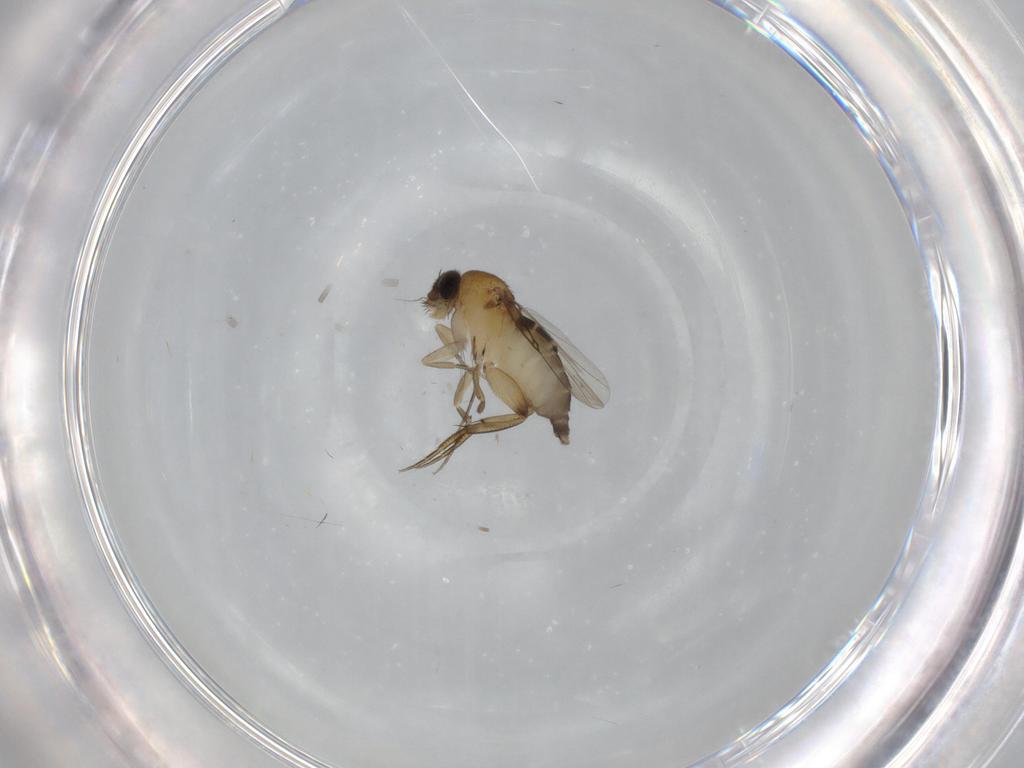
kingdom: Animalia
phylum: Arthropoda
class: Insecta
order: Diptera
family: Phoridae
